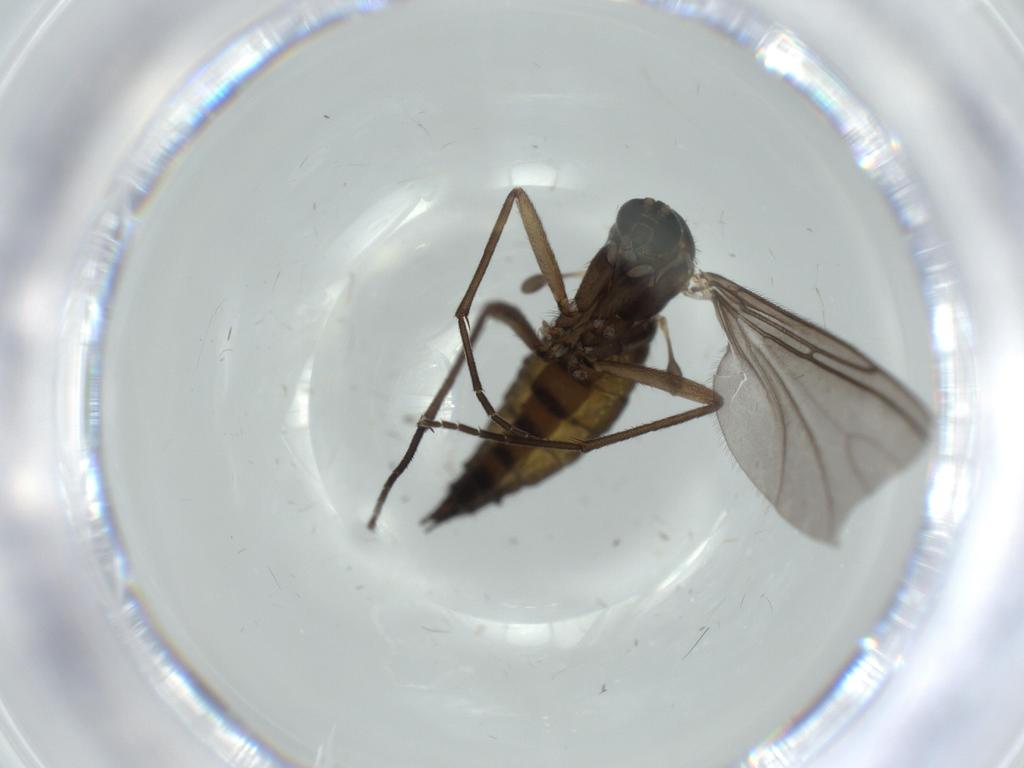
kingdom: Animalia
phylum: Arthropoda
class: Insecta
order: Diptera
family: Sciaridae
